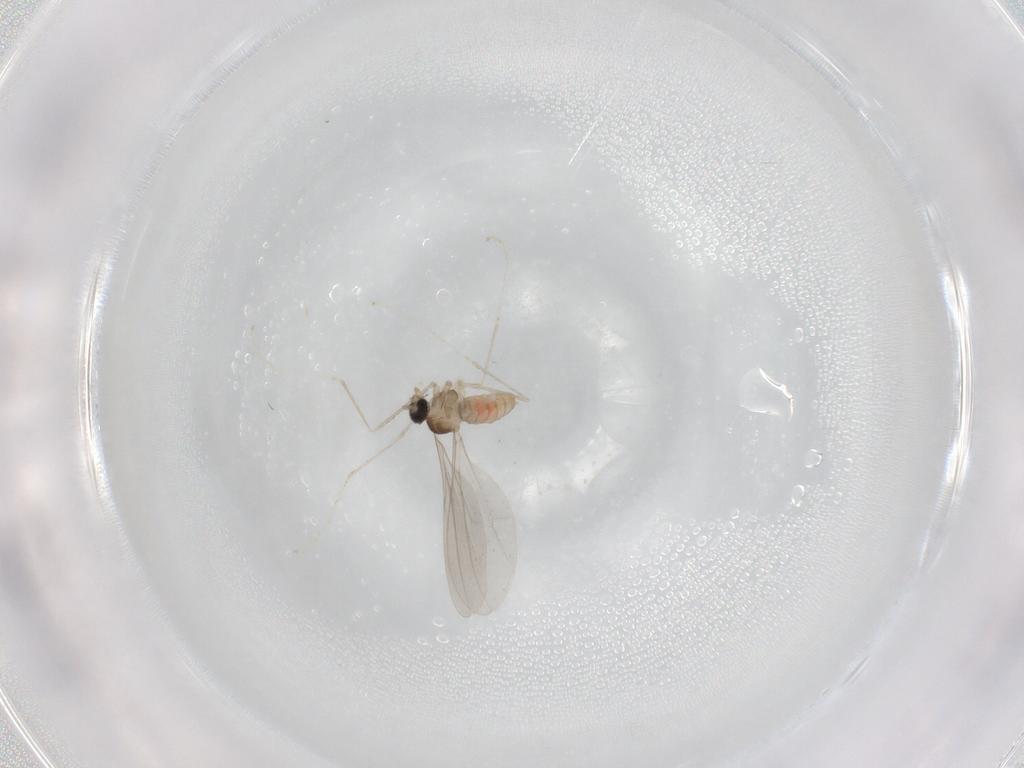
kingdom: Animalia
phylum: Arthropoda
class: Insecta
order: Diptera
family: Cecidomyiidae
